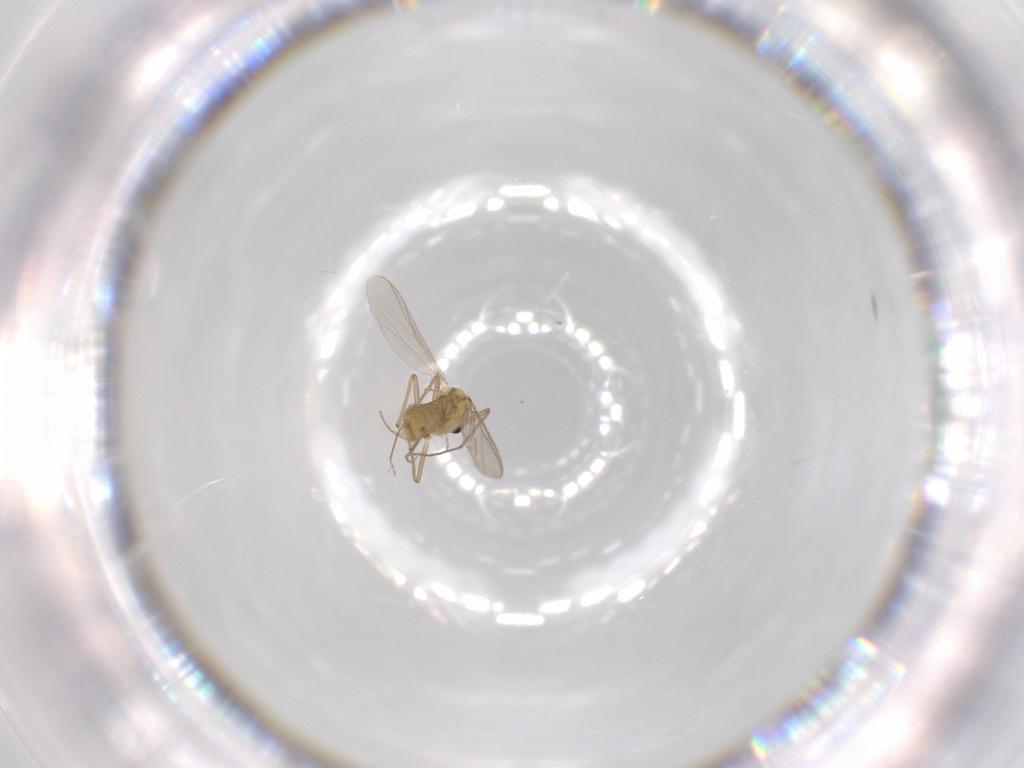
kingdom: Animalia
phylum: Arthropoda
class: Insecta
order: Diptera
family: Chironomidae
